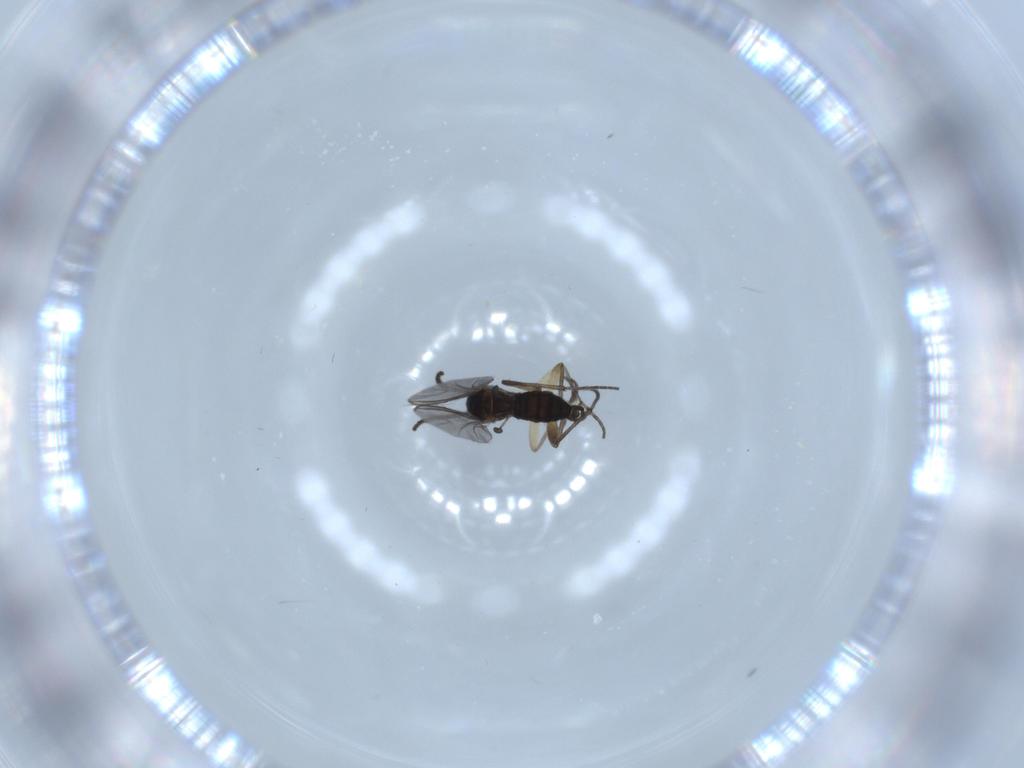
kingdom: Animalia
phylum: Arthropoda
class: Insecta
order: Diptera
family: Sciaridae
